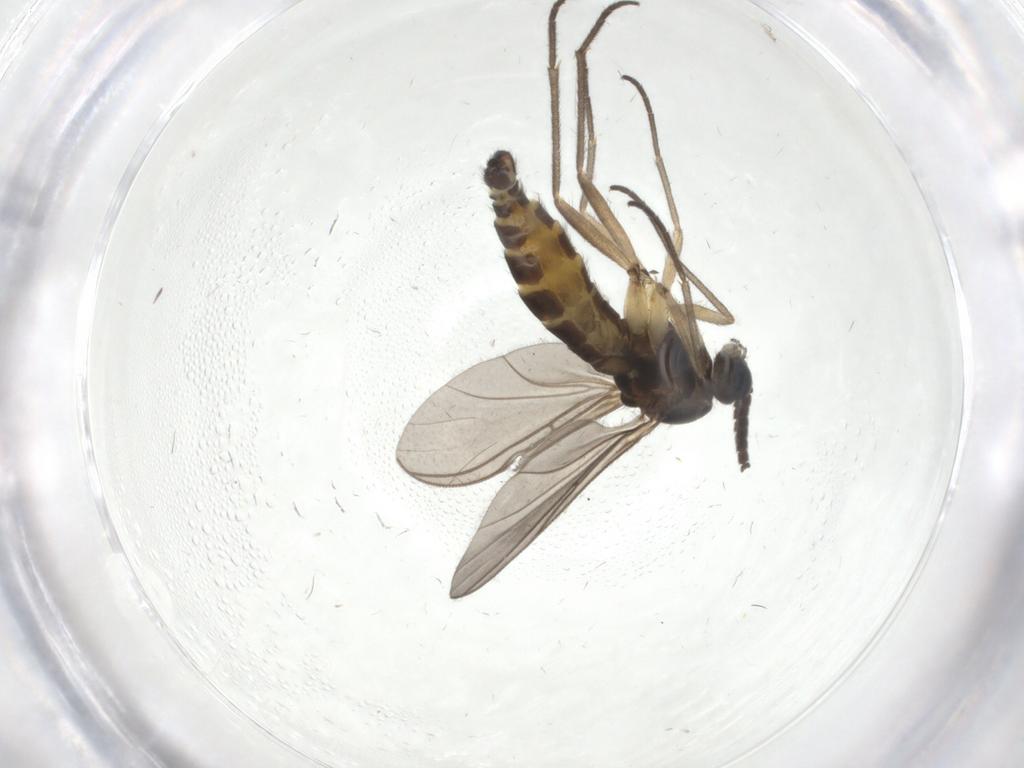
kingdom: Animalia
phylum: Arthropoda
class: Insecta
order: Diptera
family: Sciaridae
